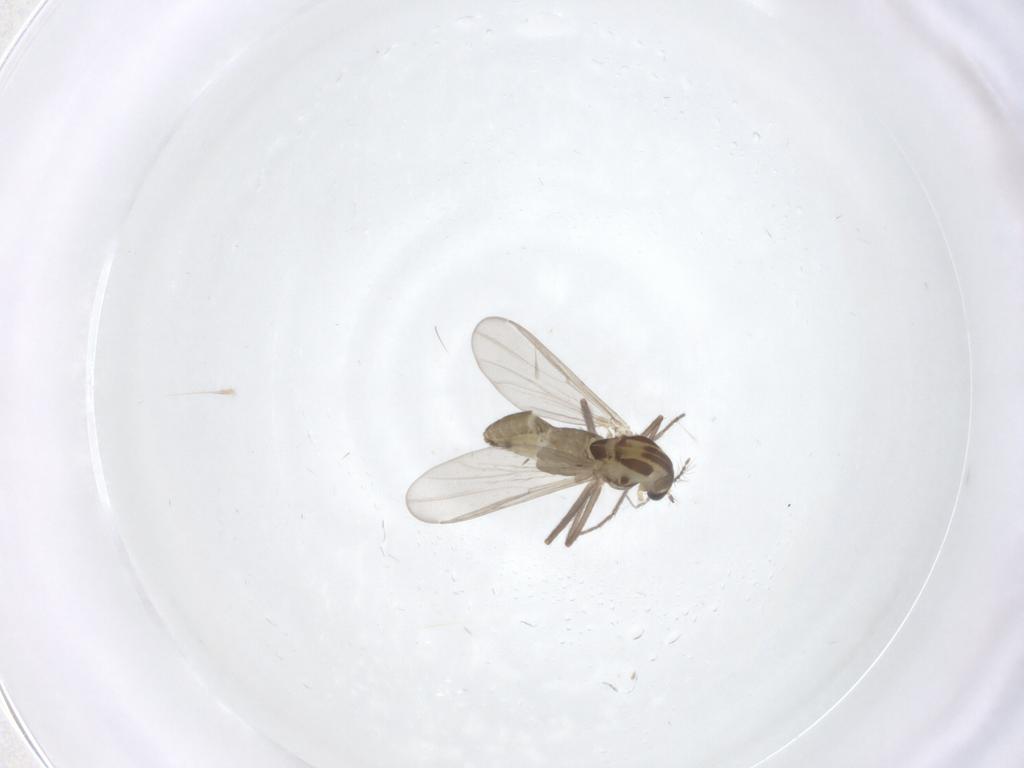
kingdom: Animalia
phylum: Arthropoda
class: Insecta
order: Diptera
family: Chironomidae
